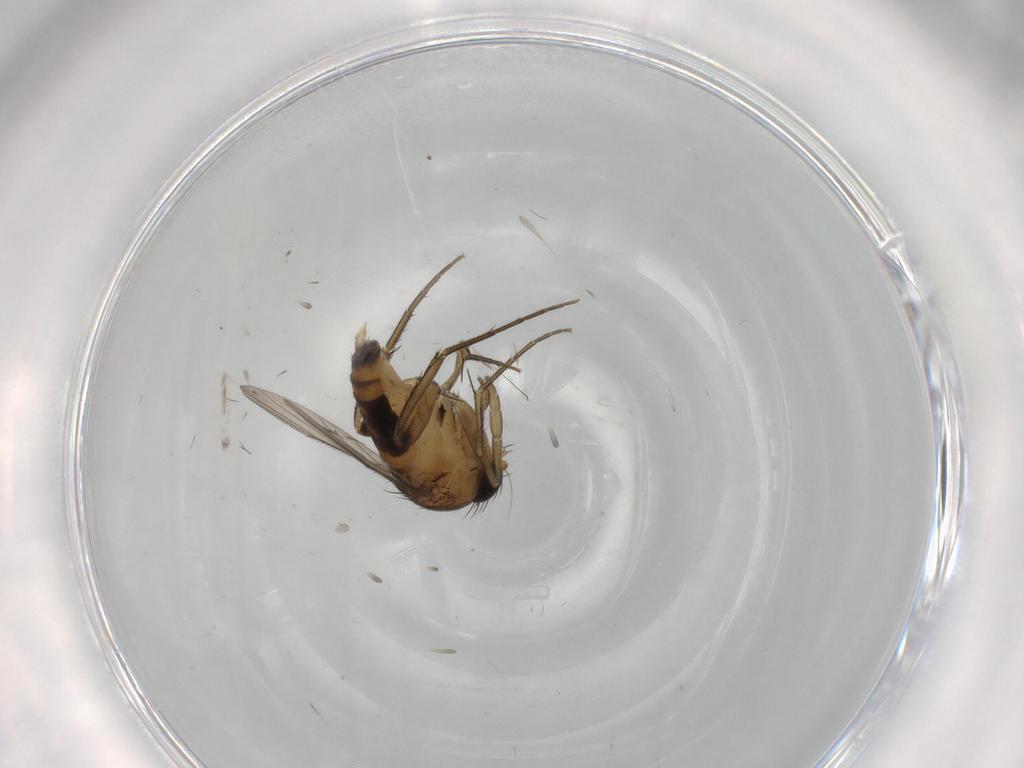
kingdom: Animalia
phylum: Arthropoda
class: Insecta
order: Diptera
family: Phoridae
